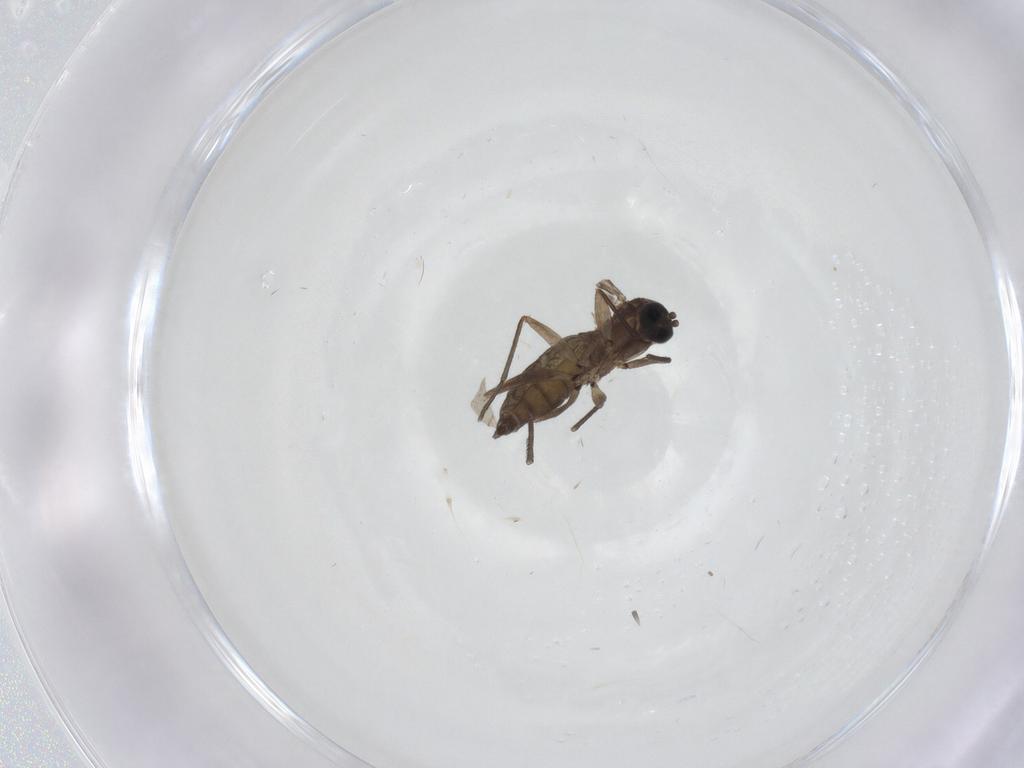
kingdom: Animalia
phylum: Arthropoda
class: Insecta
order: Diptera
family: Sciaridae
